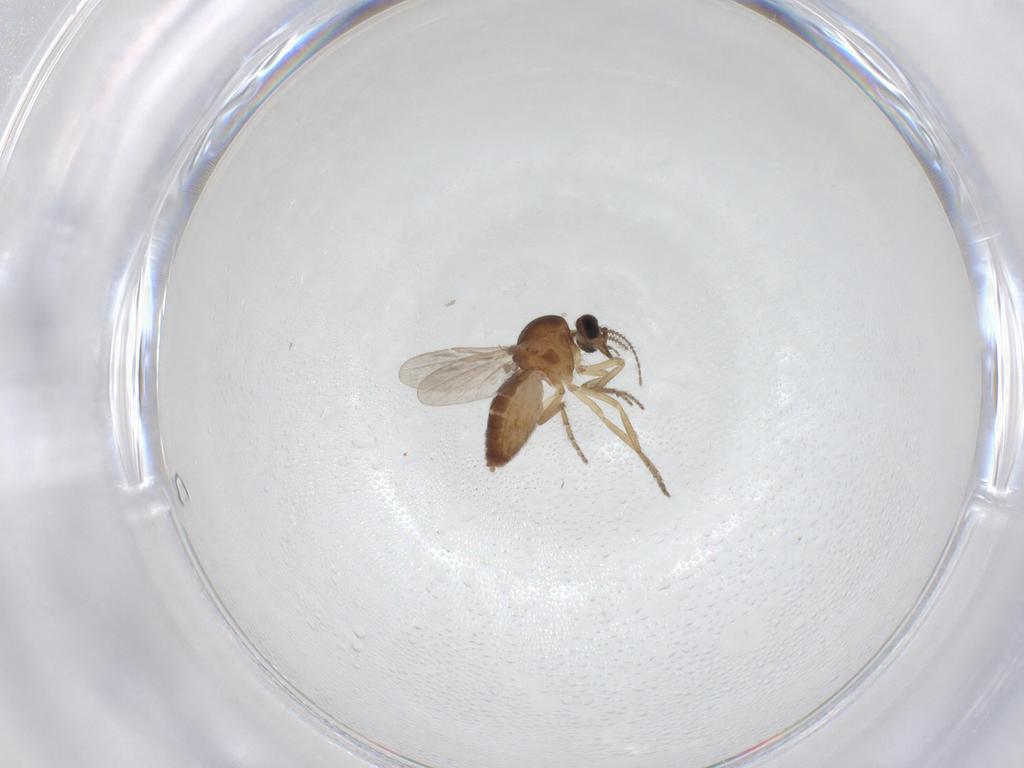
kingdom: Animalia
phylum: Arthropoda
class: Insecta
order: Diptera
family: Ceratopogonidae
